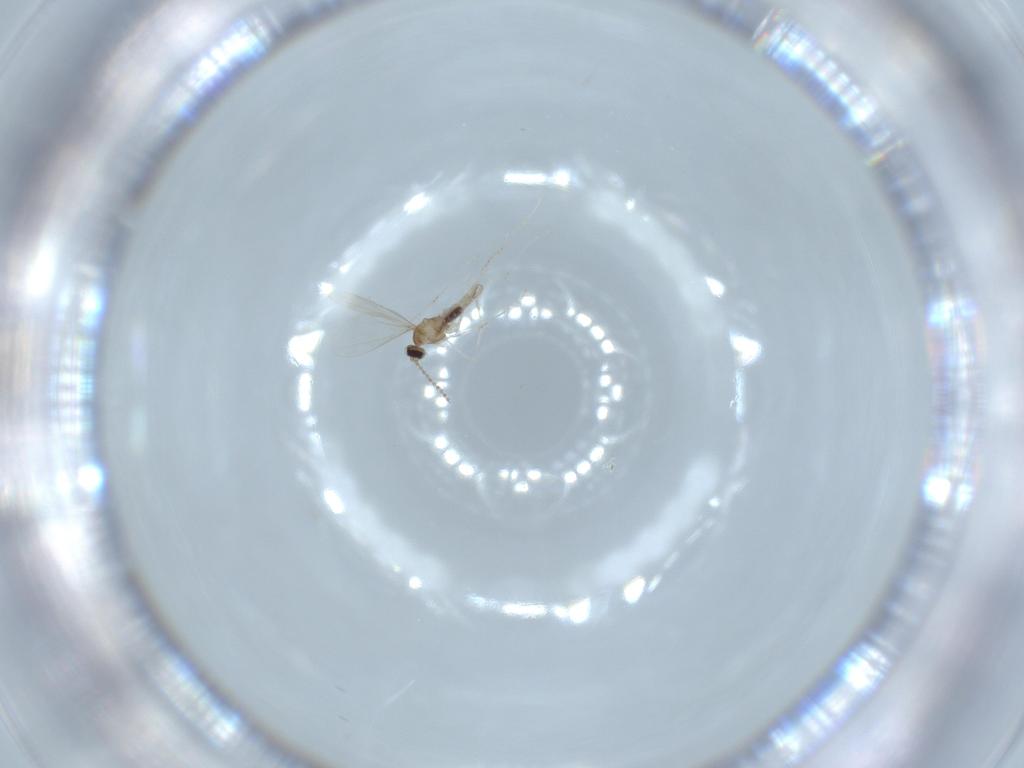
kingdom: Animalia
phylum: Arthropoda
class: Insecta
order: Diptera
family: Cecidomyiidae
